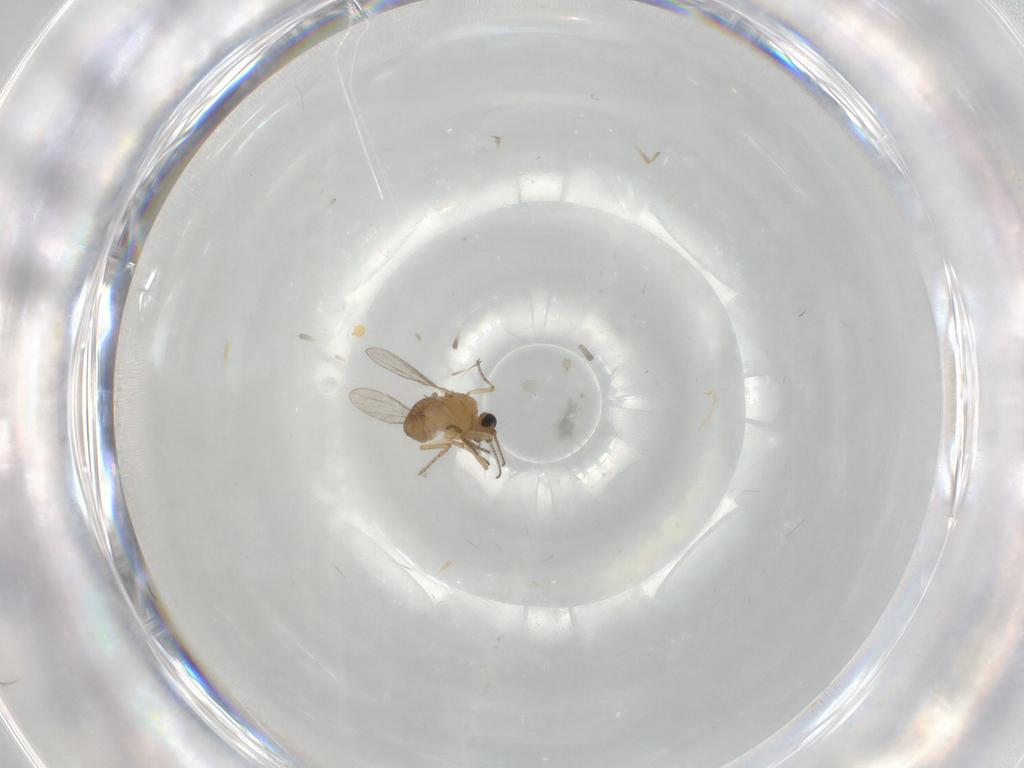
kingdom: Animalia
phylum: Arthropoda
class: Insecta
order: Diptera
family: Ceratopogonidae
